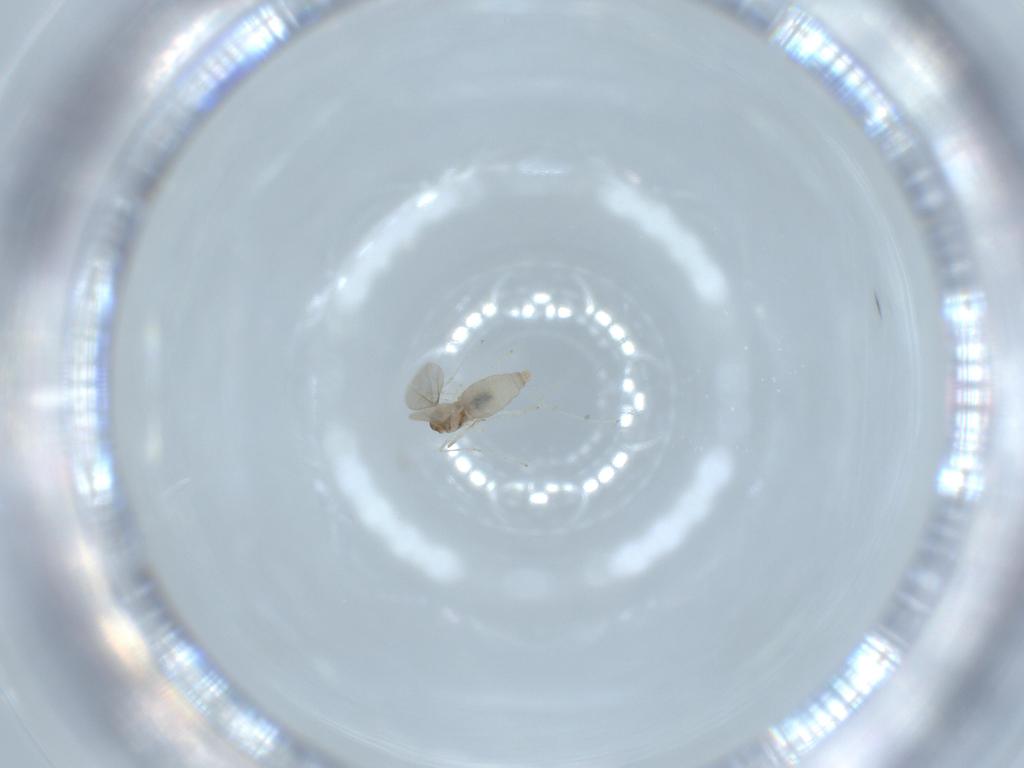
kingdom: Animalia
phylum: Arthropoda
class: Insecta
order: Diptera
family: Cecidomyiidae
